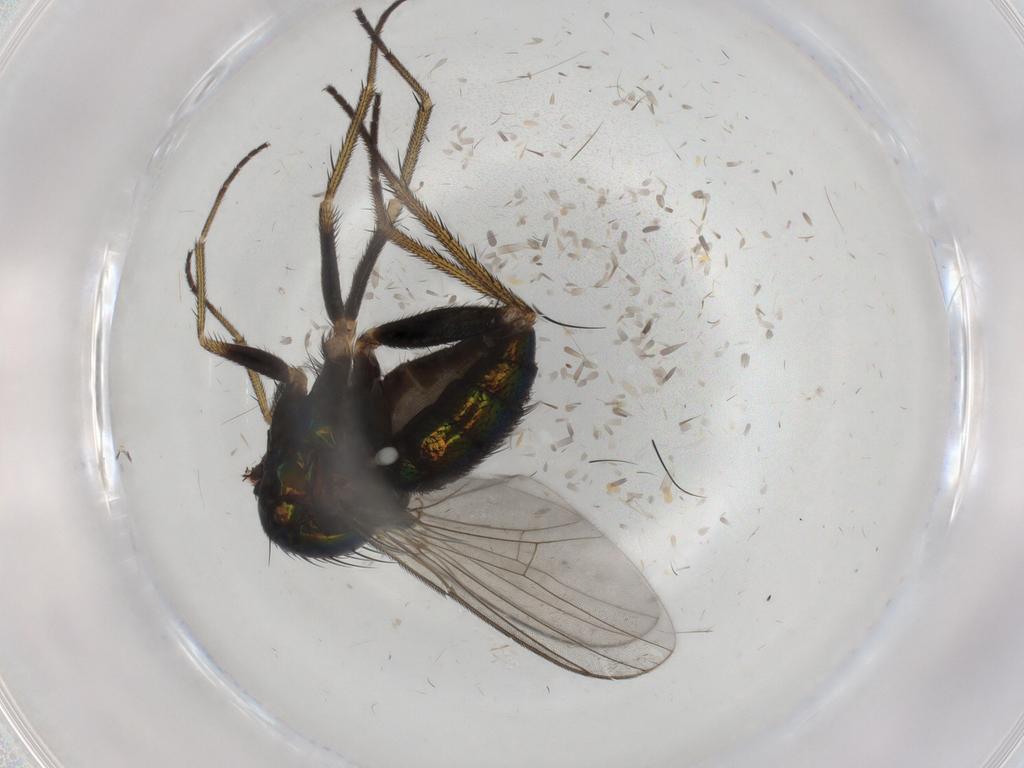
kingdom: Animalia
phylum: Arthropoda
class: Insecta
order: Diptera
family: Dolichopodidae
